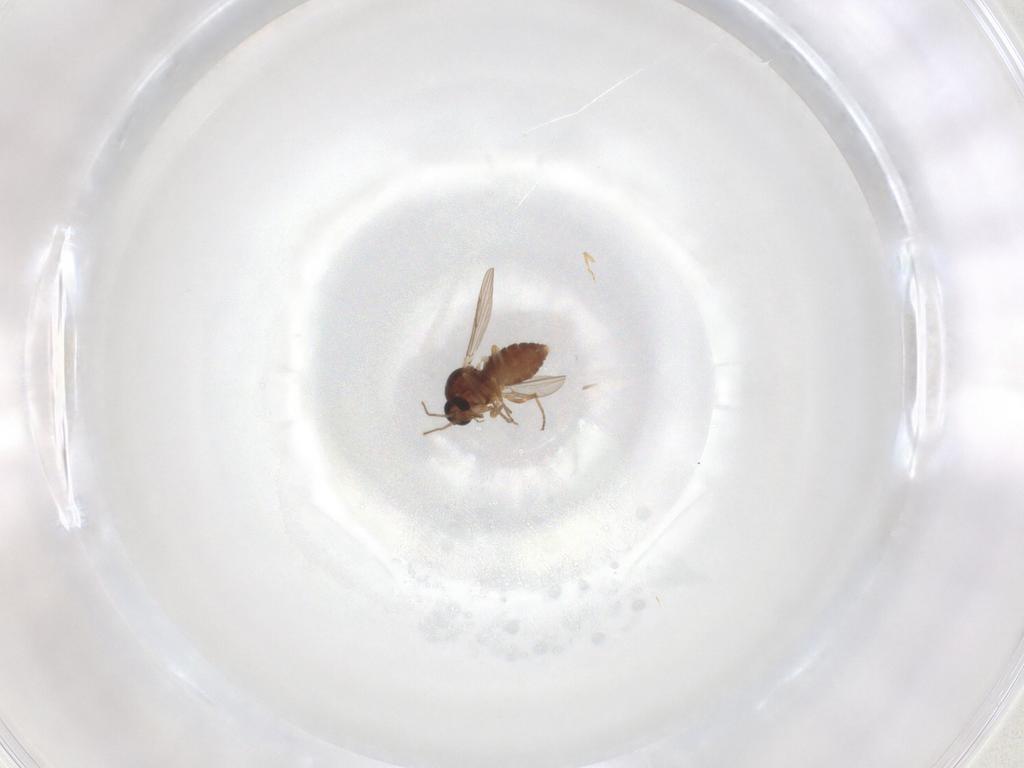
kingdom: Animalia
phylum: Arthropoda
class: Insecta
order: Diptera
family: Ceratopogonidae
